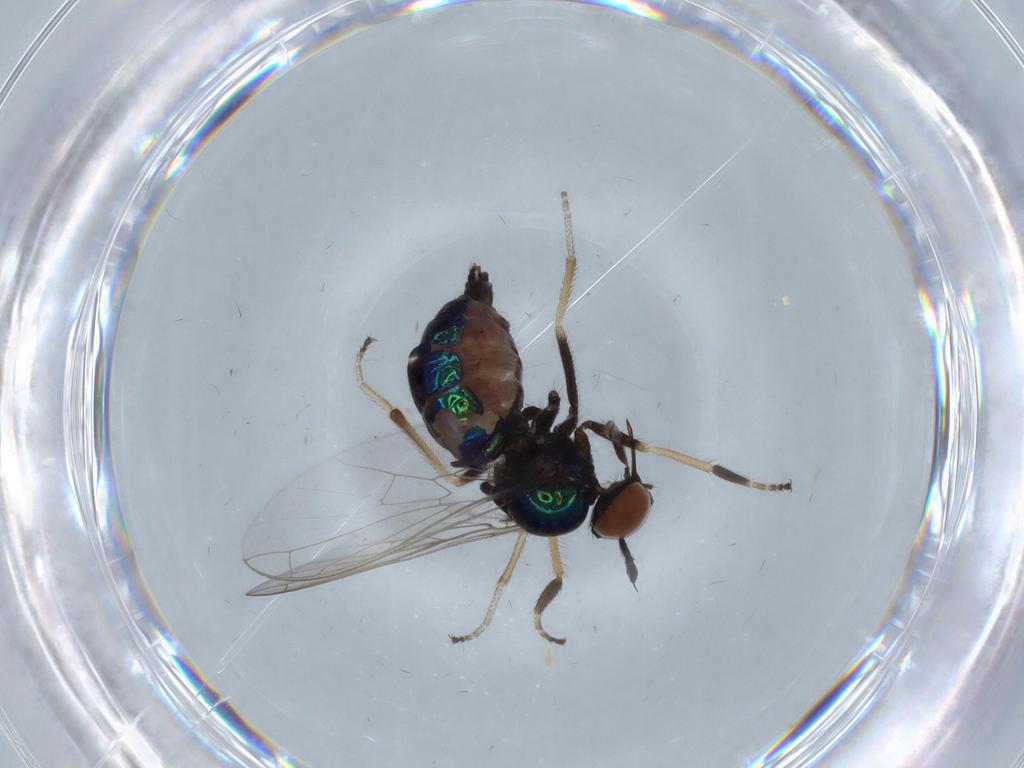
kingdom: Animalia
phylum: Arthropoda
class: Insecta
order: Diptera
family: Empididae
